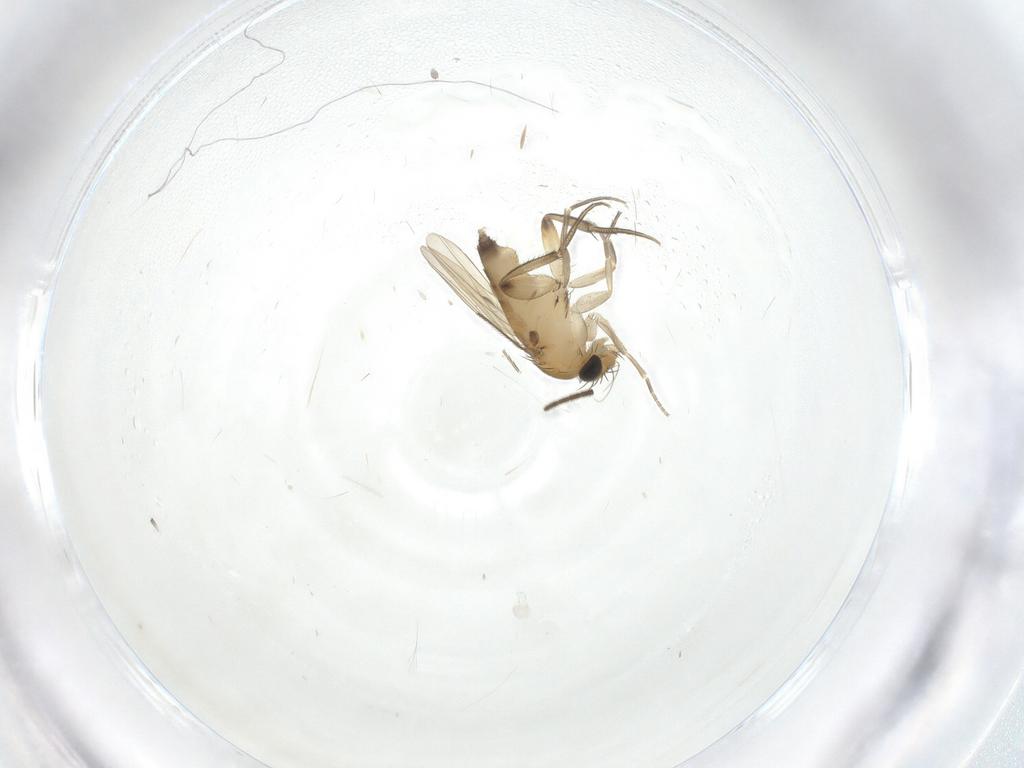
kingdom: Animalia
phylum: Arthropoda
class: Insecta
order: Diptera
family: Phoridae
